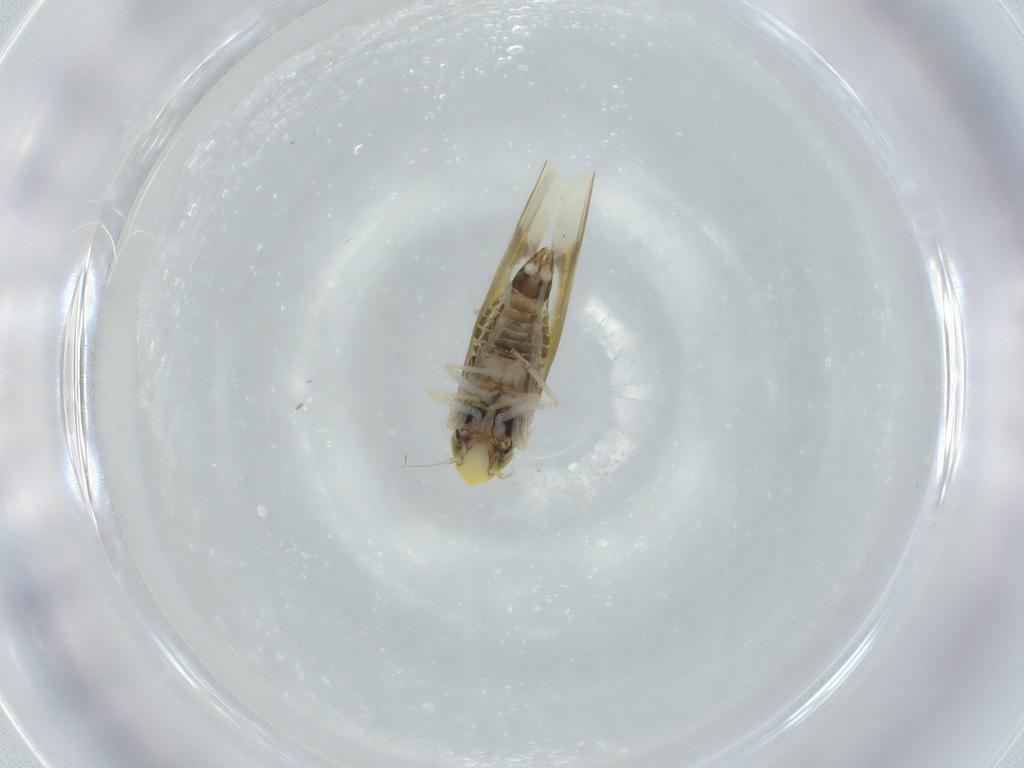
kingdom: Animalia
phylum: Arthropoda
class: Insecta
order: Hemiptera
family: Cicadellidae
